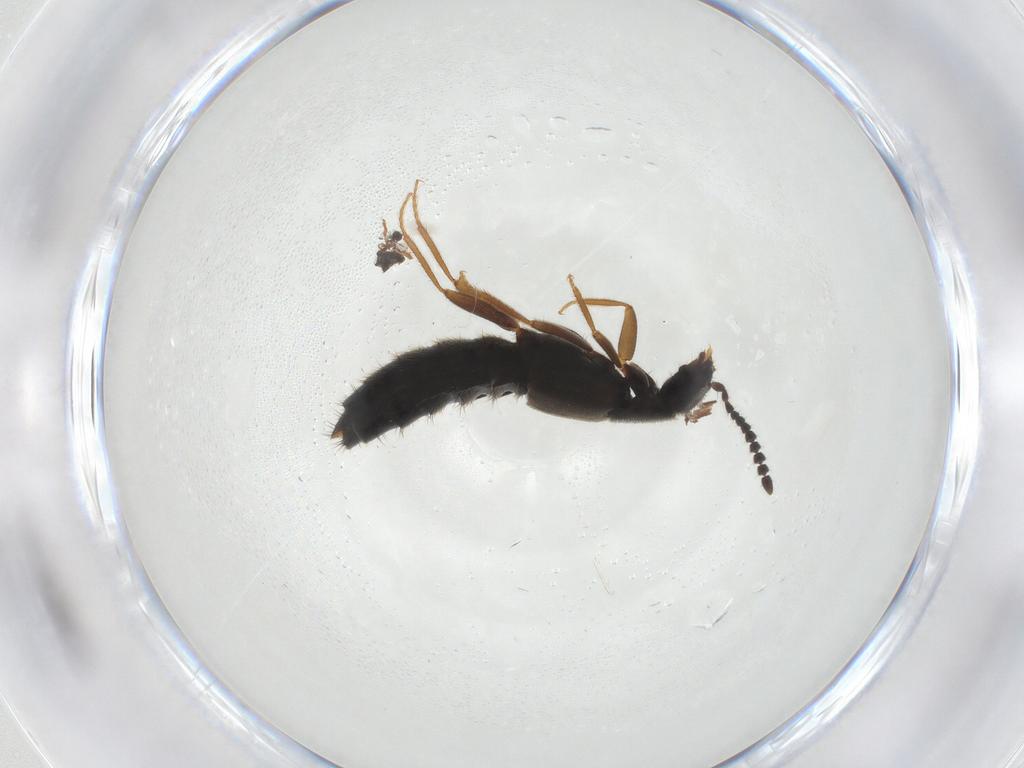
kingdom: Animalia
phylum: Arthropoda
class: Insecta
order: Coleoptera
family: Staphylinidae
